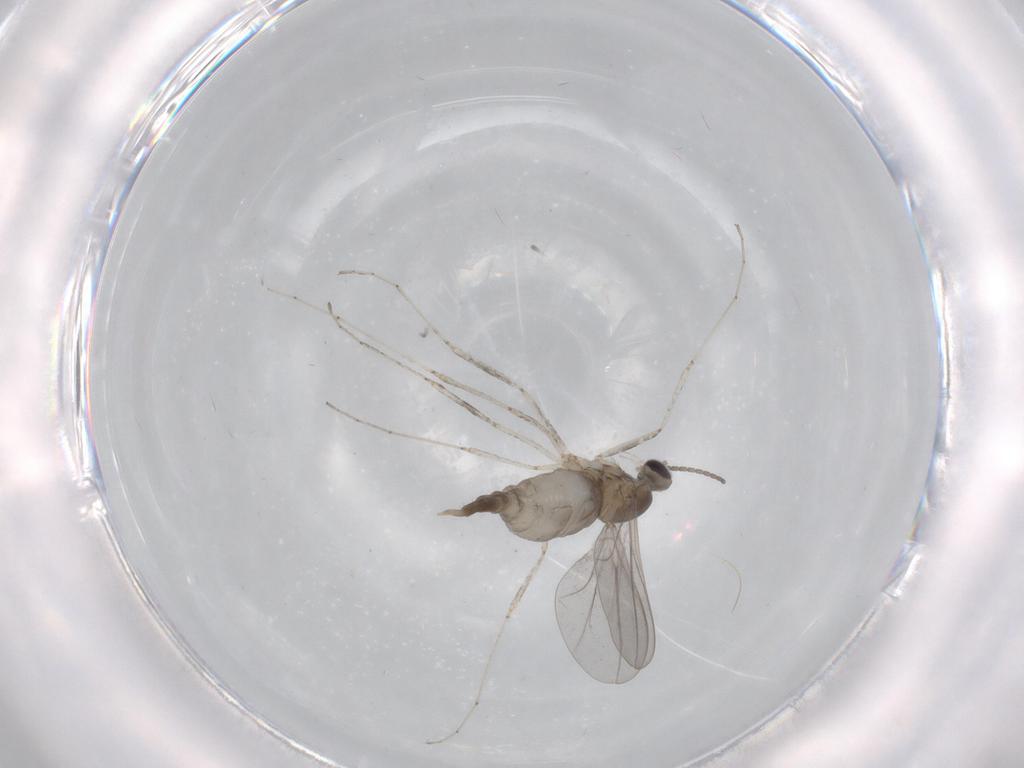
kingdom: Animalia
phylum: Arthropoda
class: Insecta
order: Diptera
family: Cecidomyiidae
